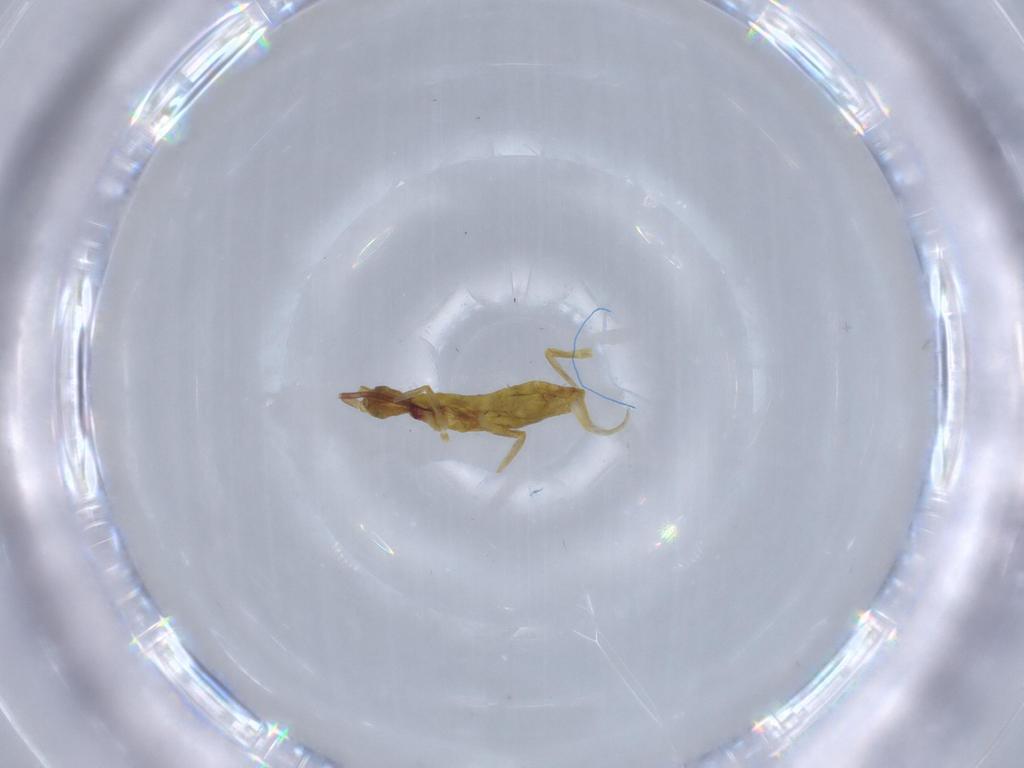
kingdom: Animalia
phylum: Arthropoda
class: Collembola
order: Entomobryomorpha
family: Tomoceridae
